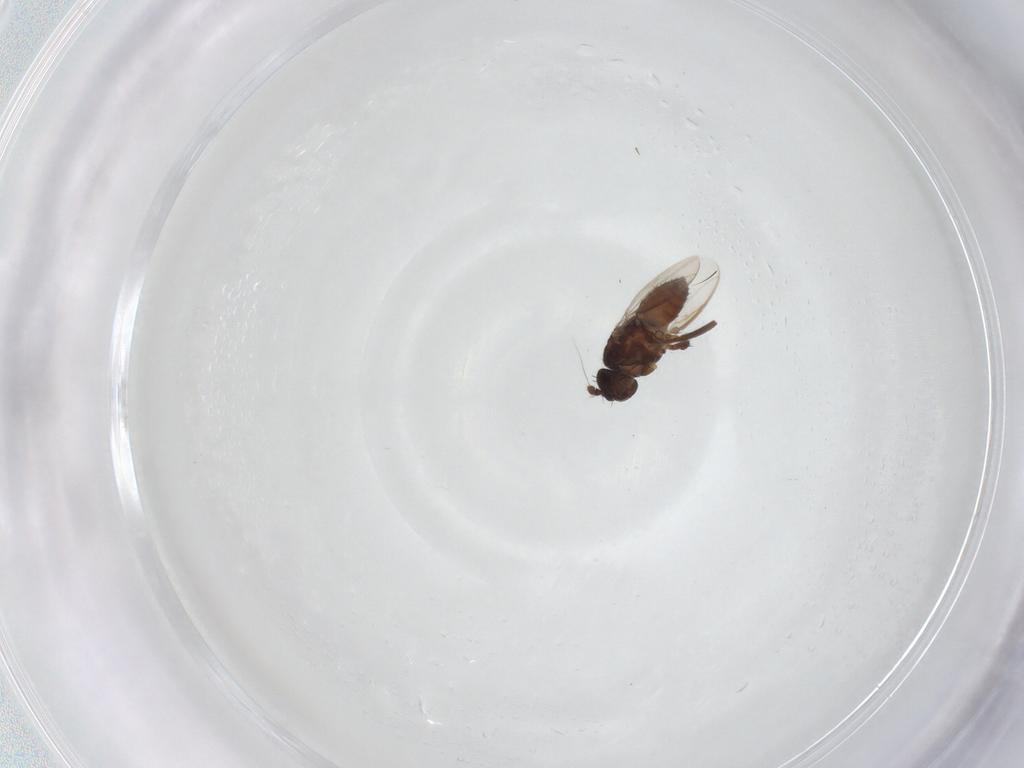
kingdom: Animalia
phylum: Arthropoda
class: Insecta
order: Diptera
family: Sphaeroceridae
